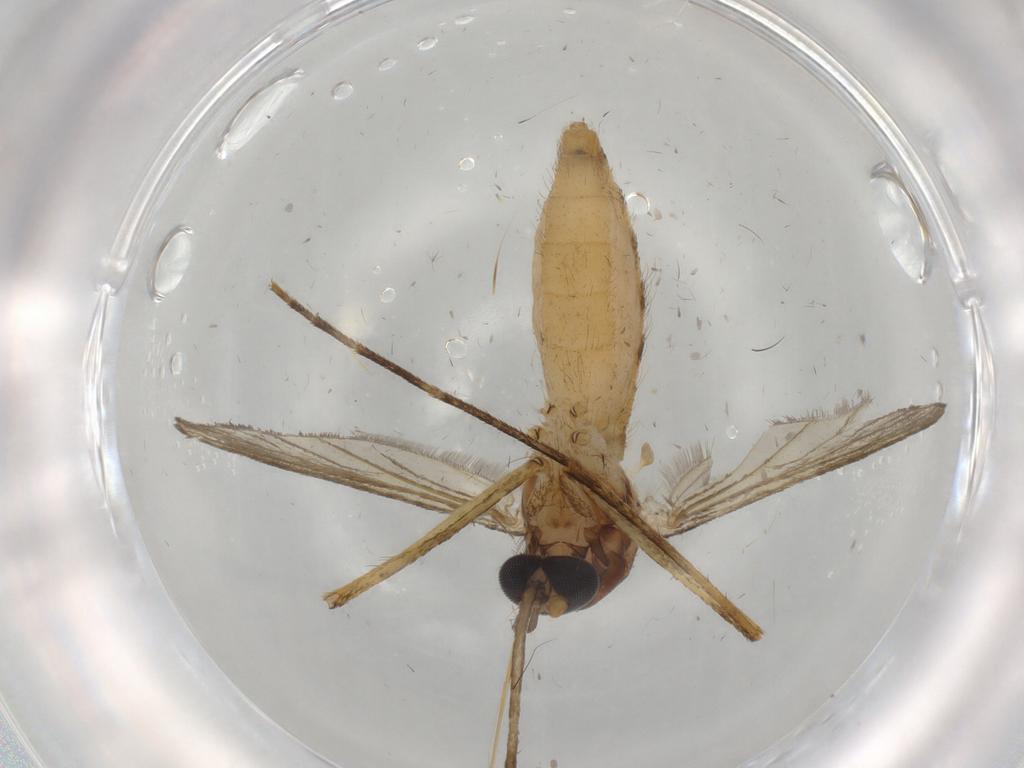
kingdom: Animalia
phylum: Arthropoda
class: Insecta
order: Diptera
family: Culicidae
